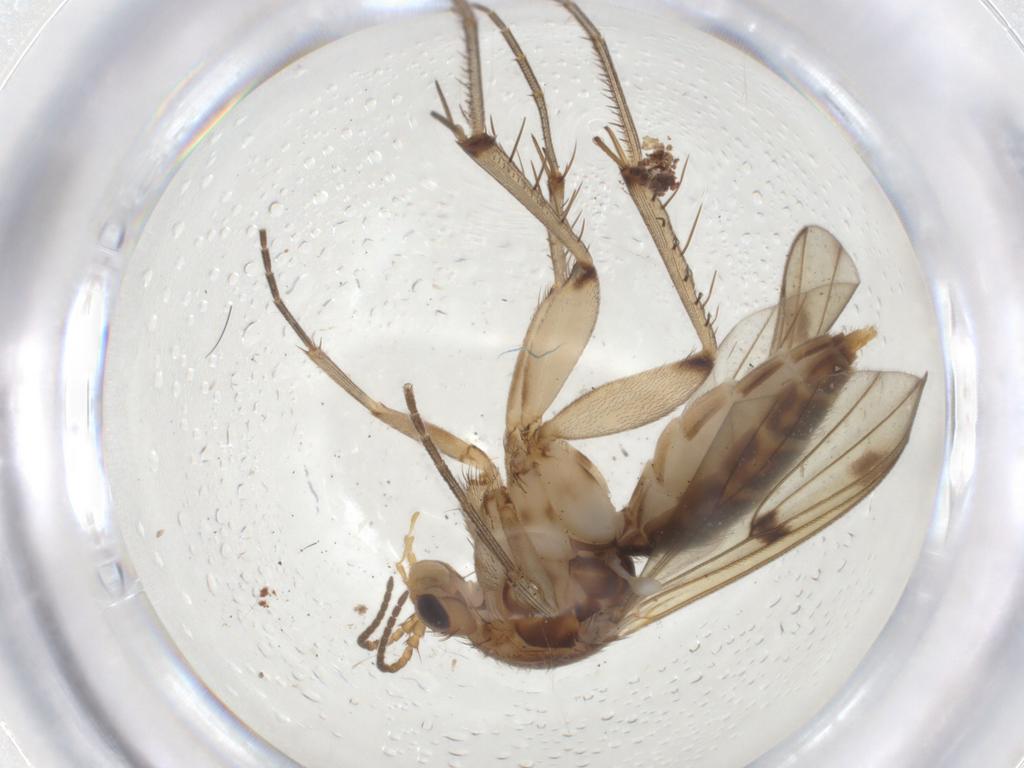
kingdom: Animalia
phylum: Arthropoda
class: Insecta
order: Diptera
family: Mycetophilidae
